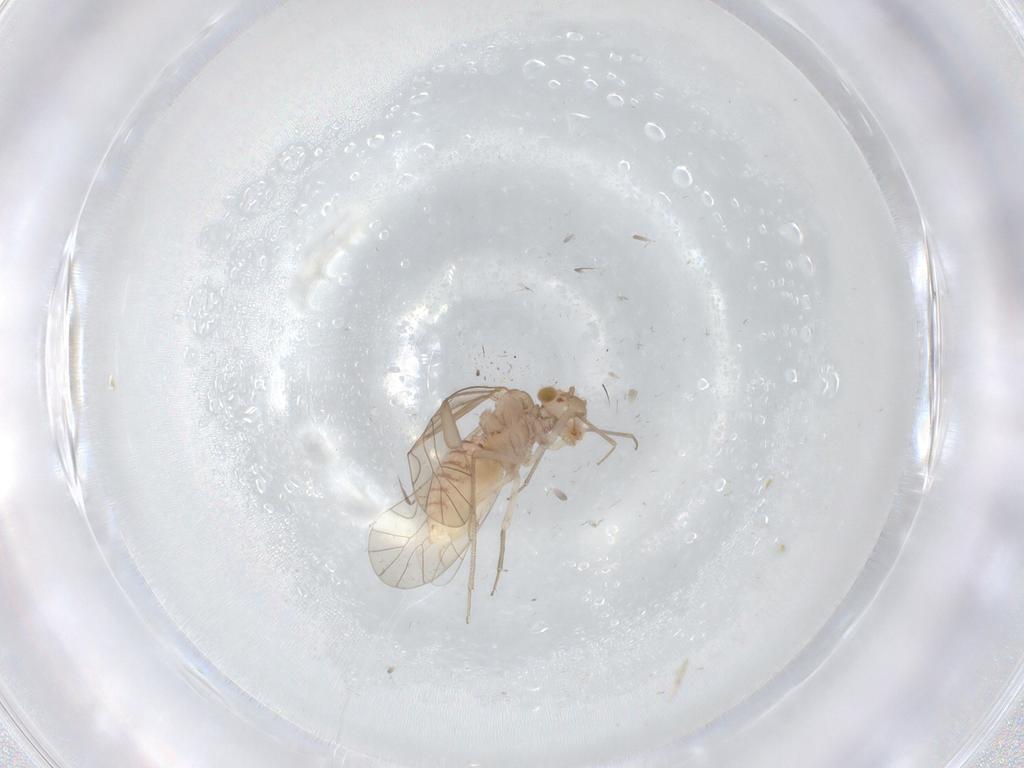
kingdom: Animalia
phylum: Arthropoda
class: Insecta
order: Psocodea
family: Lachesillidae
